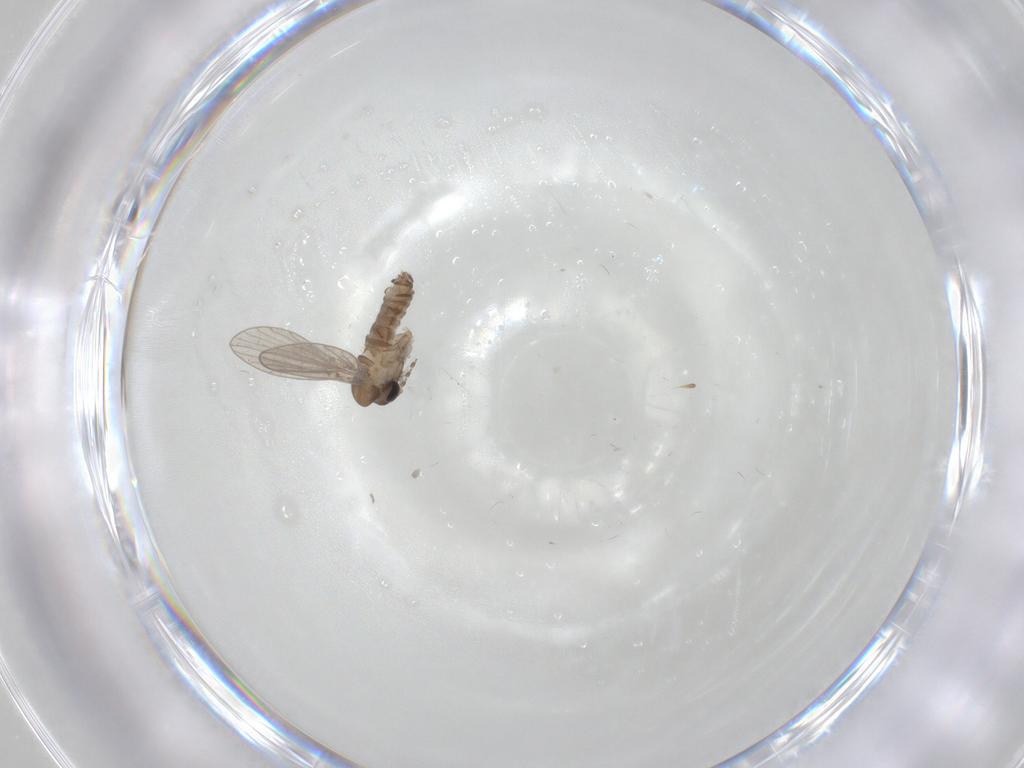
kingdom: Animalia
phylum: Arthropoda
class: Insecta
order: Diptera
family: Chironomidae
